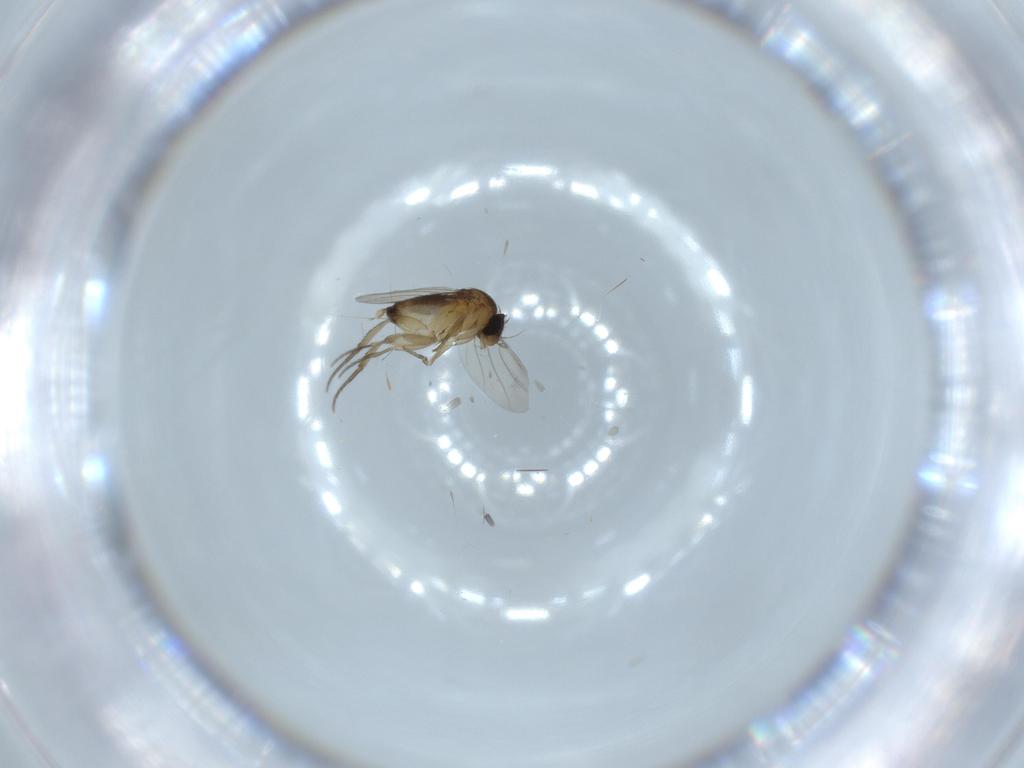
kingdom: Animalia
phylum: Arthropoda
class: Insecta
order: Diptera
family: Phoridae
